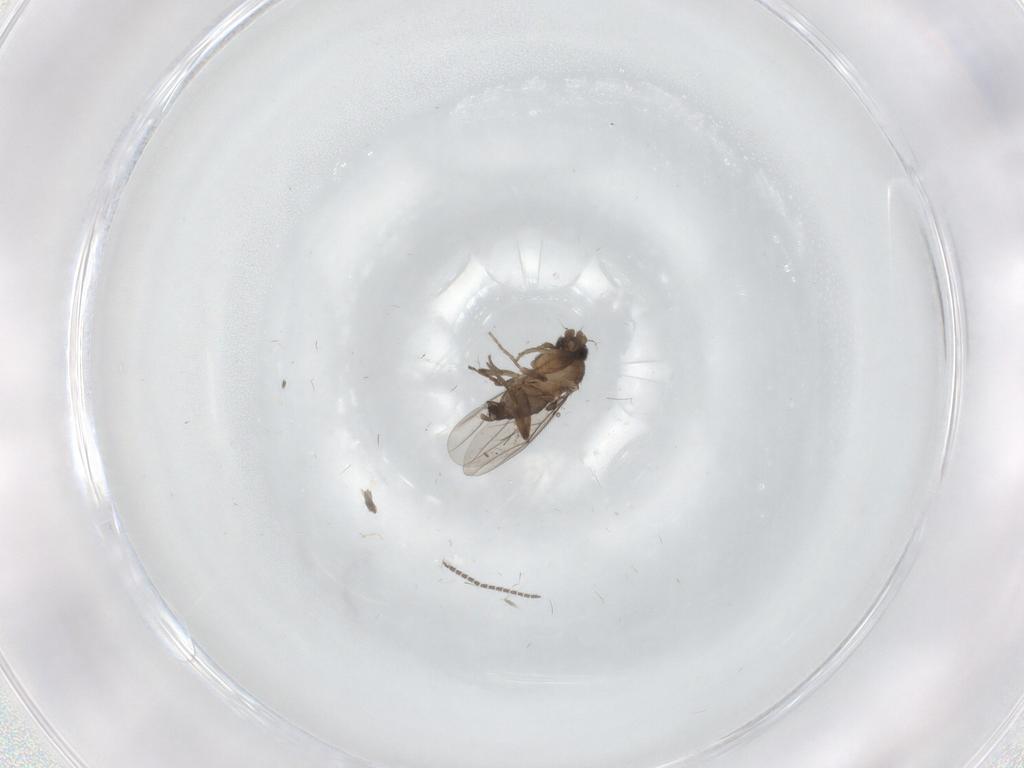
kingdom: Animalia
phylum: Arthropoda
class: Insecta
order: Diptera
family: Sciaridae
